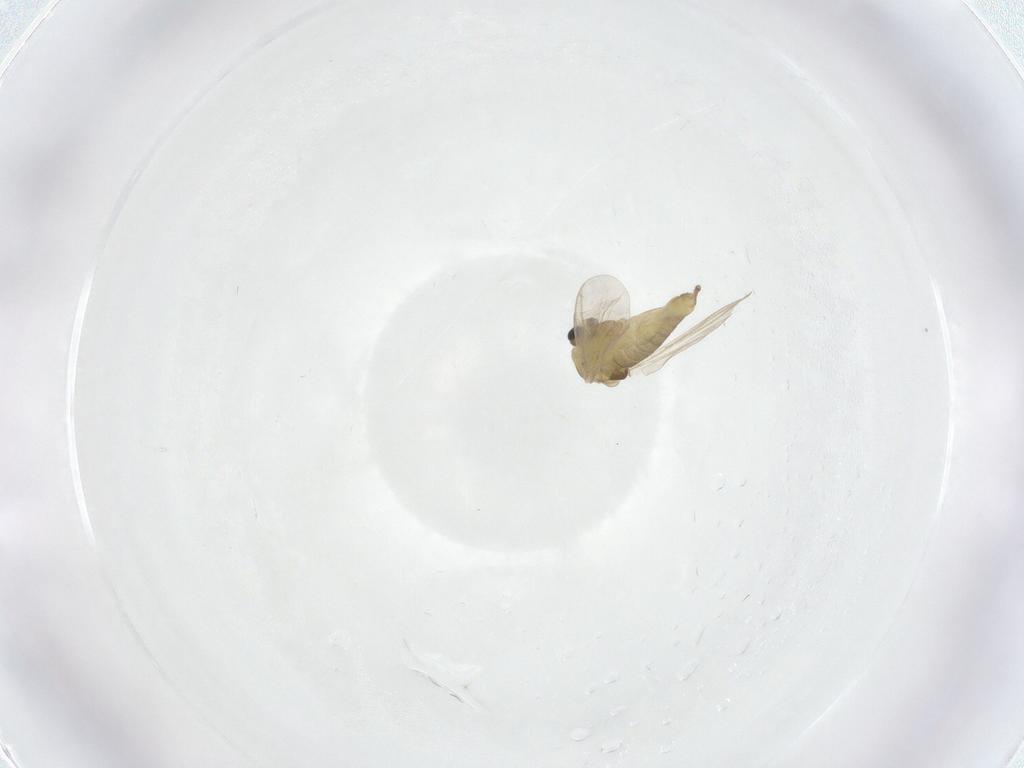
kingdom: Animalia
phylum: Arthropoda
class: Insecta
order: Diptera
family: Chironomidae
